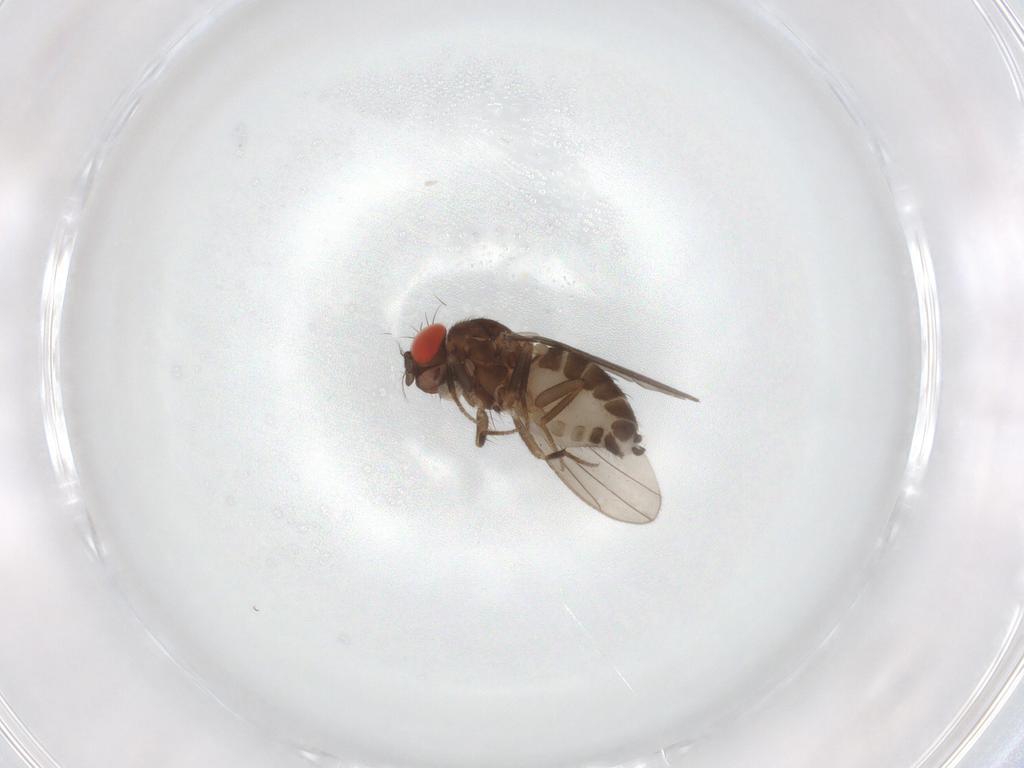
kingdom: Animalia
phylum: Arthropoda
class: Insecta
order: Diptera
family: Drosophilidae
